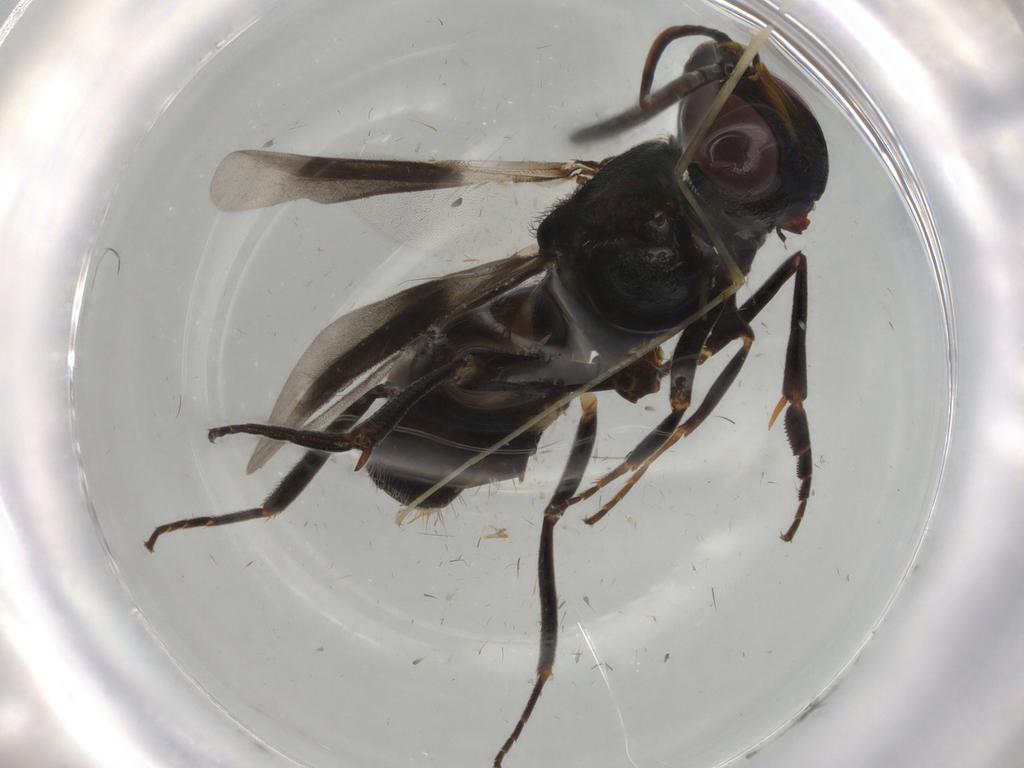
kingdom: Animalia
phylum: Arthropoda
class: Insecta
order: Hymenoptera
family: Eupelmidae
